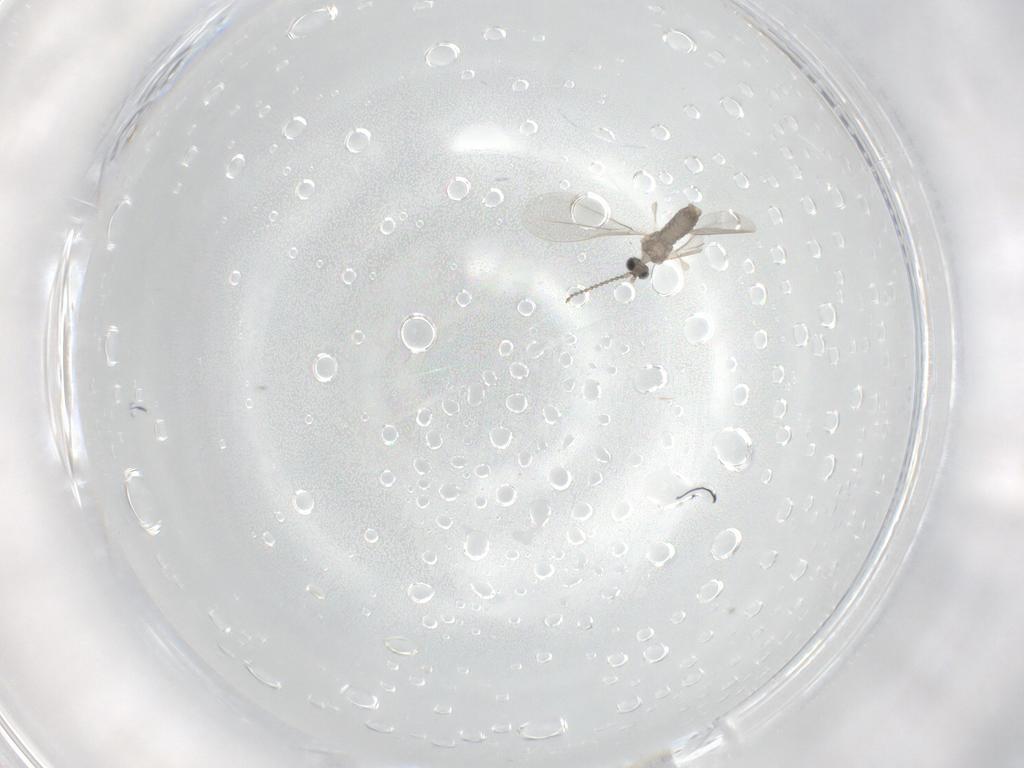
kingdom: Animalia
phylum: Arthropoda
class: Insecta
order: Diptera
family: Cecidomyiidae
